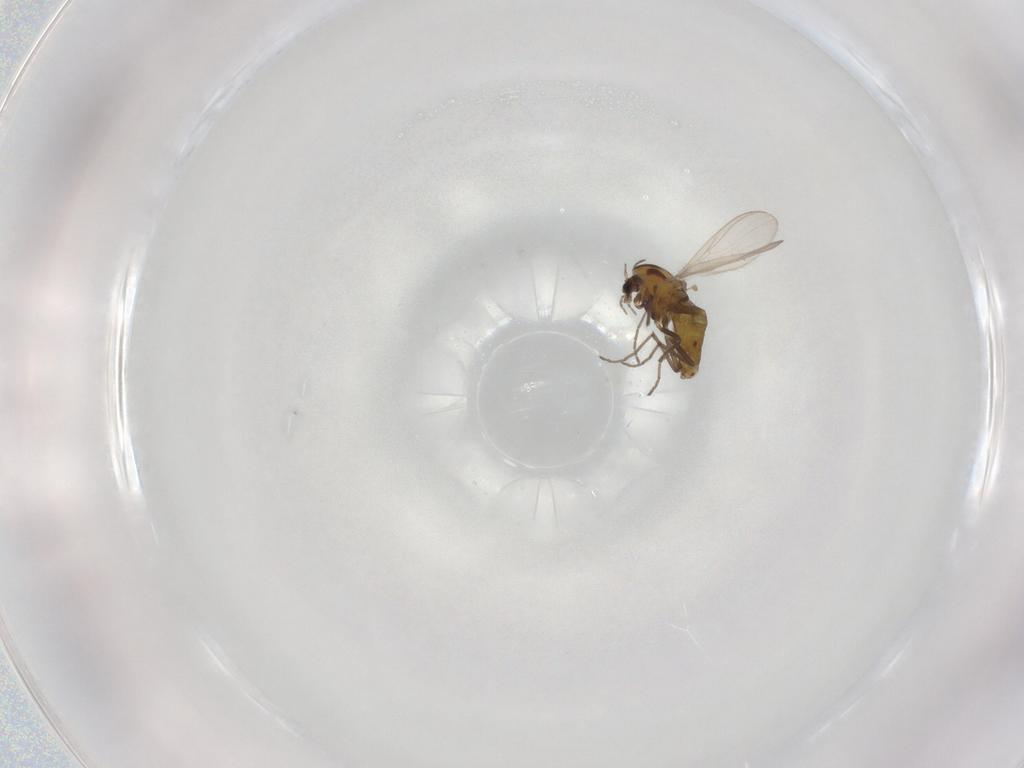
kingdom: Animalia
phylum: Arthropoda
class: Insecta
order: Diptera
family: Chironomidae
